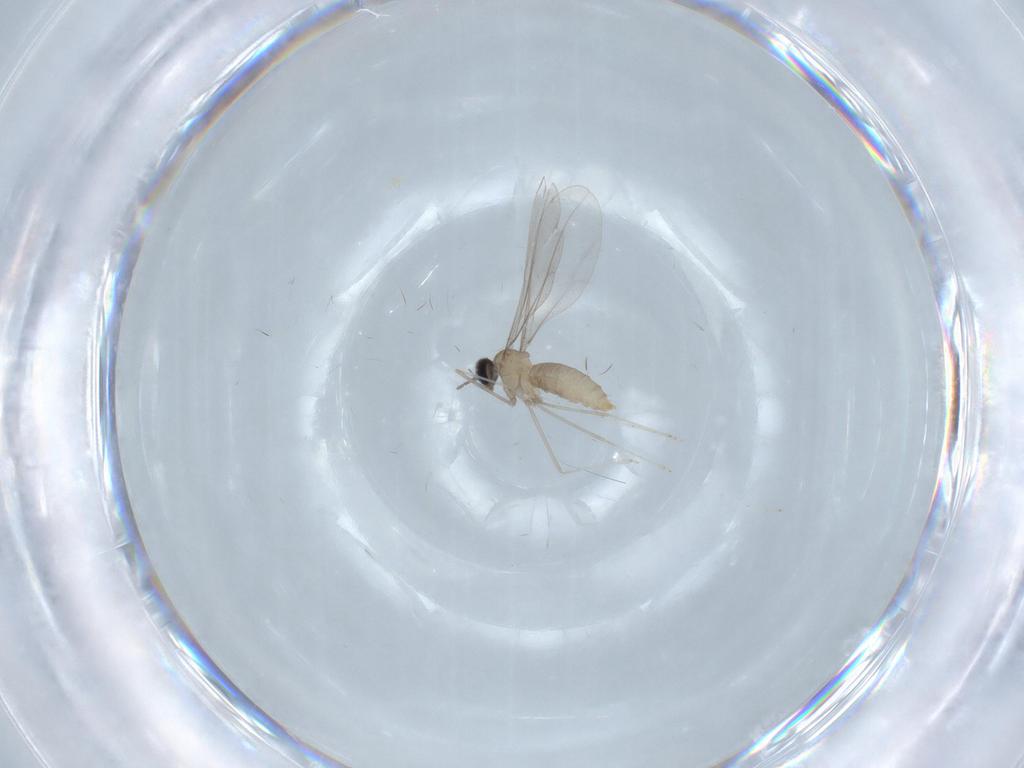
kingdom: Animalia
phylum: Arthropoda
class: Insecta
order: Diptera
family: Cecidomyiidae
